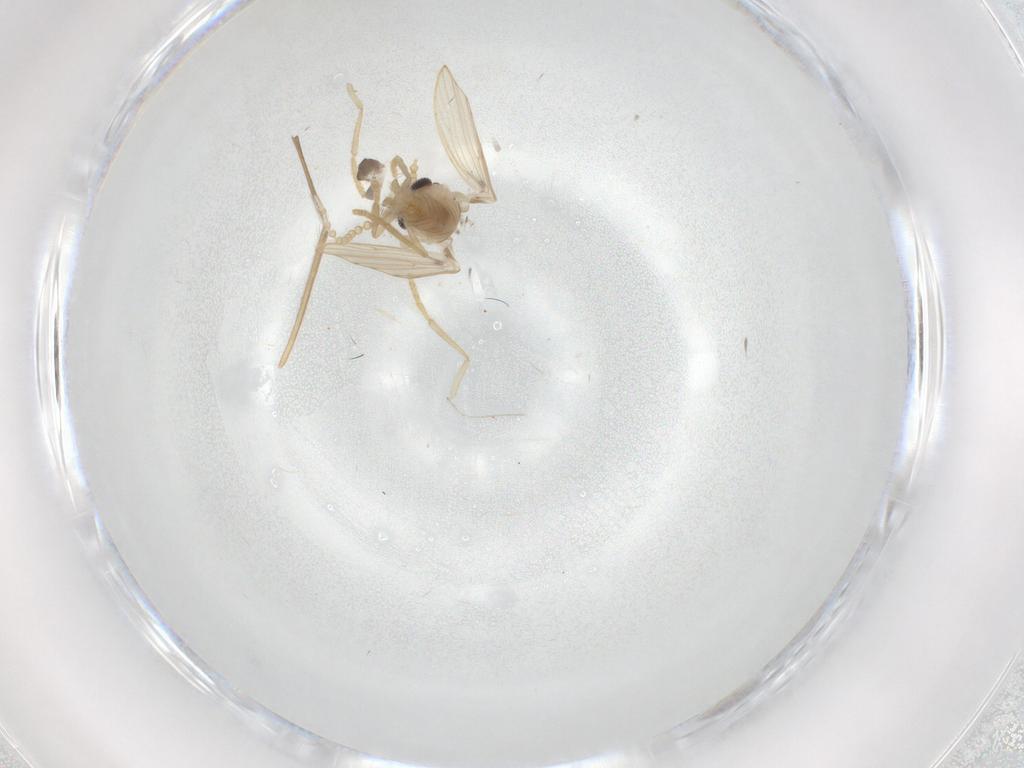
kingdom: Animalia
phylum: Arthropoda
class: Insecta
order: Diptera
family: Psychodidae
